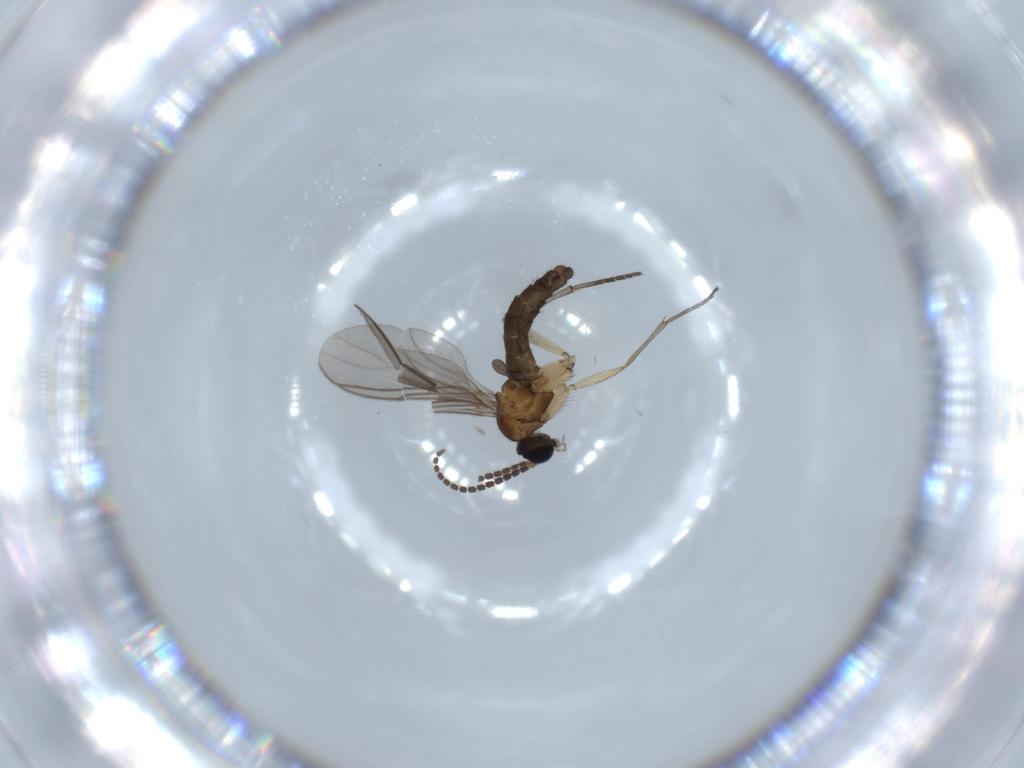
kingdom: Animalia
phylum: Arthropoda
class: Insecta
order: Diptera
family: Sciaridae
